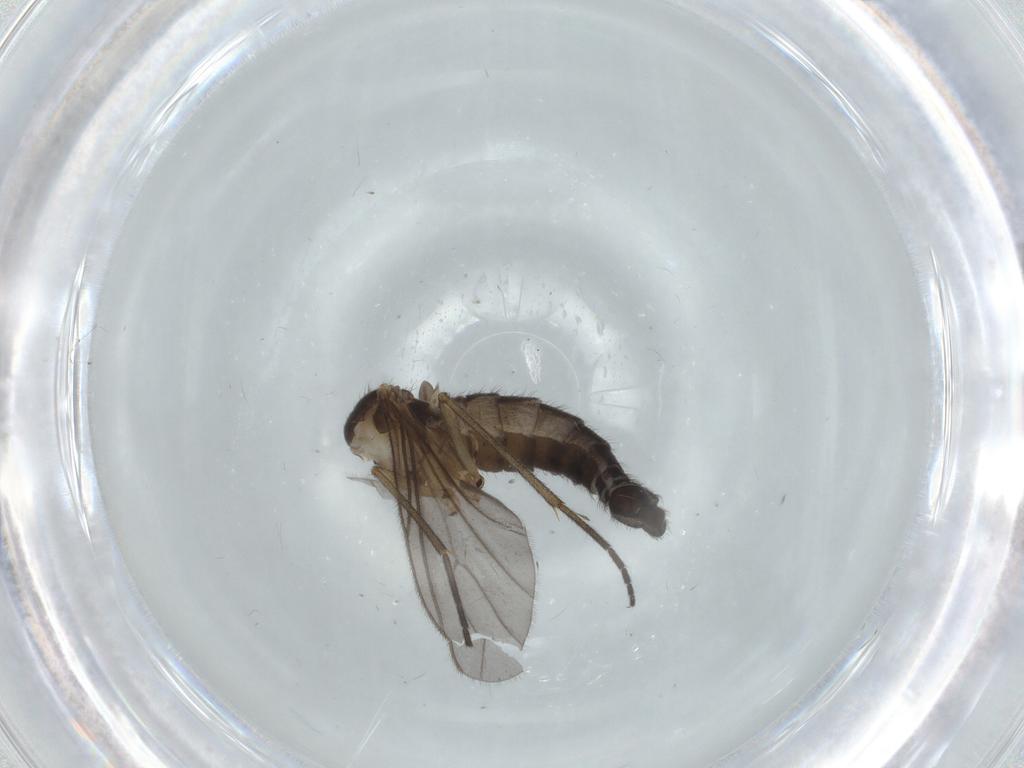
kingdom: Animalia
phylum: Arthropoda
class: Insecta
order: Diptera
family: Sciaridae
